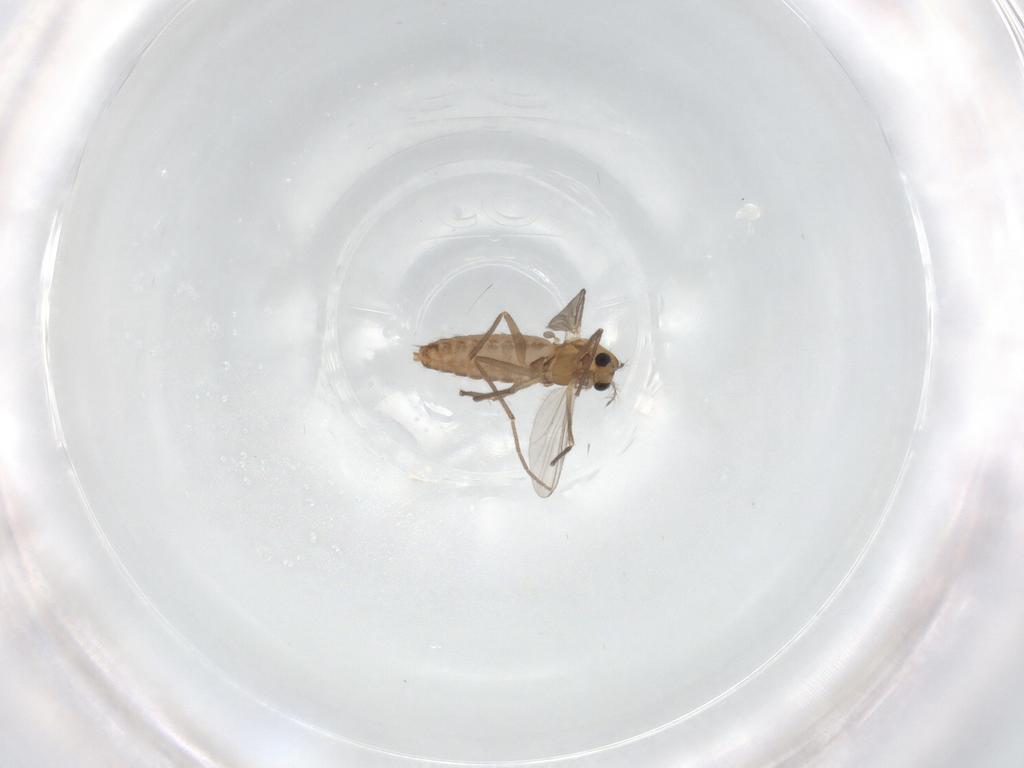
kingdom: Animalia
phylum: Arthropoda
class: Insecta
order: Diptera
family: Chironomidae
